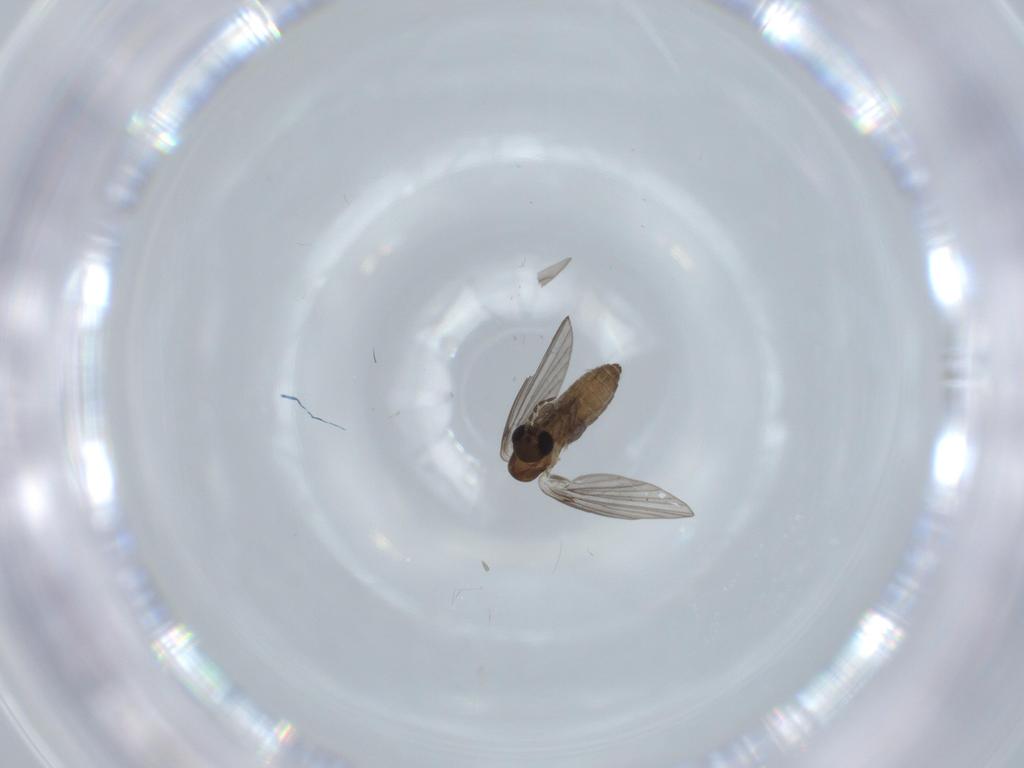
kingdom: Animalia
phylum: Arthropoda
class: Insecta
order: Diptera
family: Psychodidae
